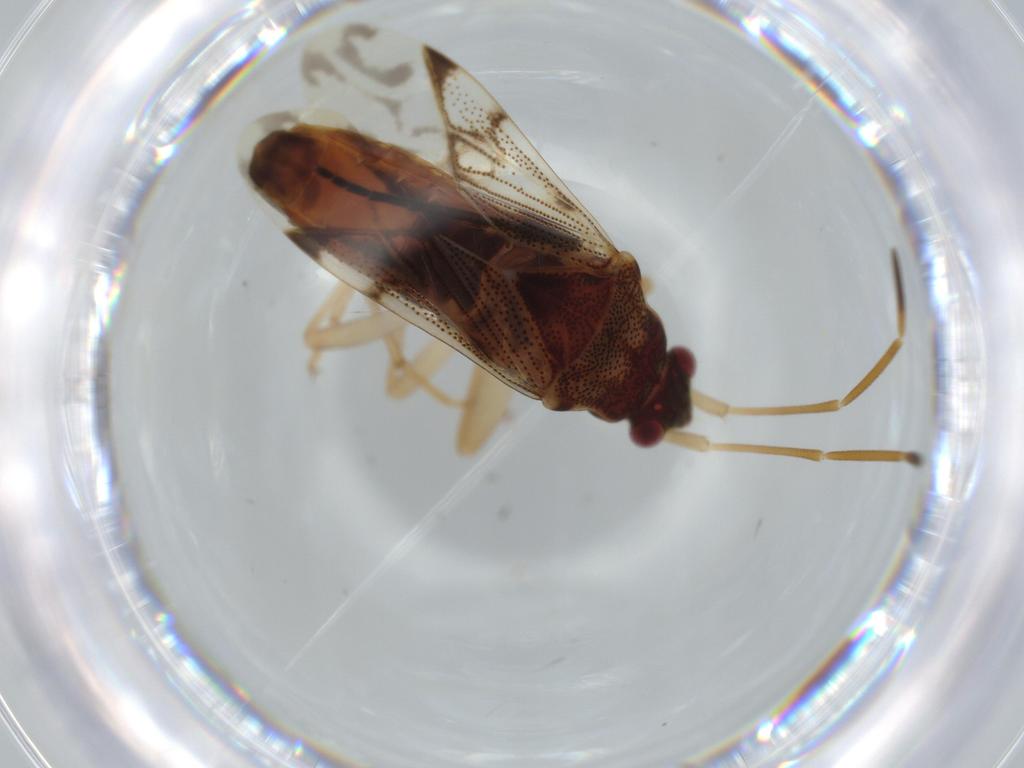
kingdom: Animalia
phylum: Arthropoda
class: Insecta
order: Hemiptera
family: Rhyparochromidae
